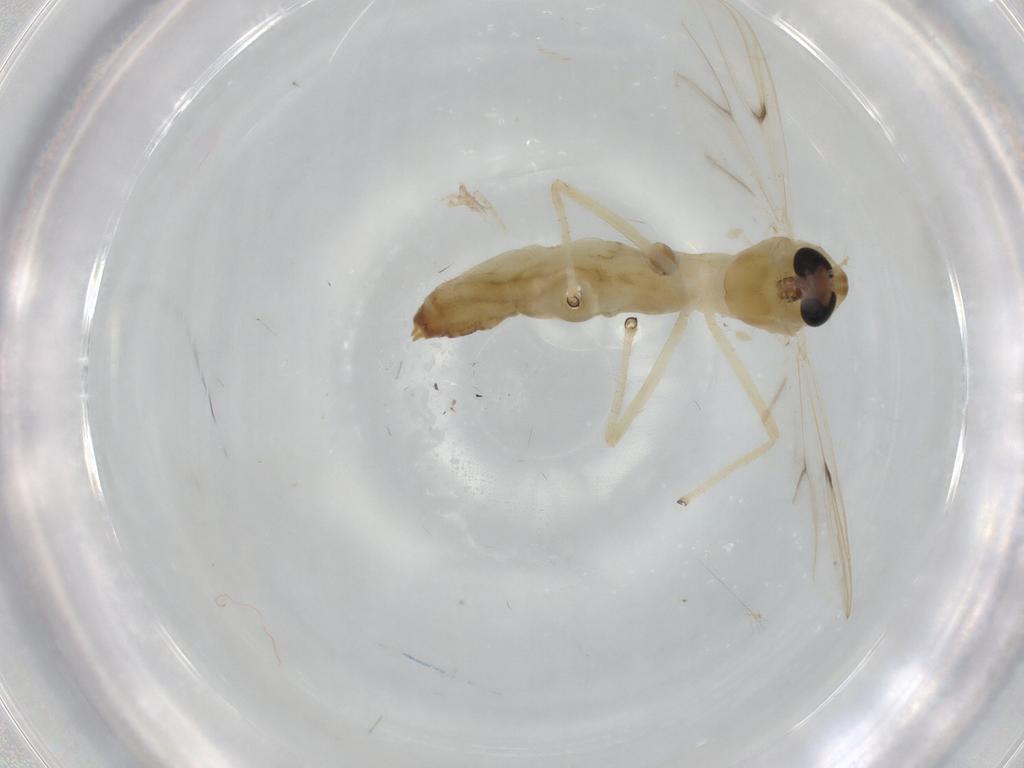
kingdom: Animalia
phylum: Arthropoda
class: Insecta
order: Diptera
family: Chironomidae
